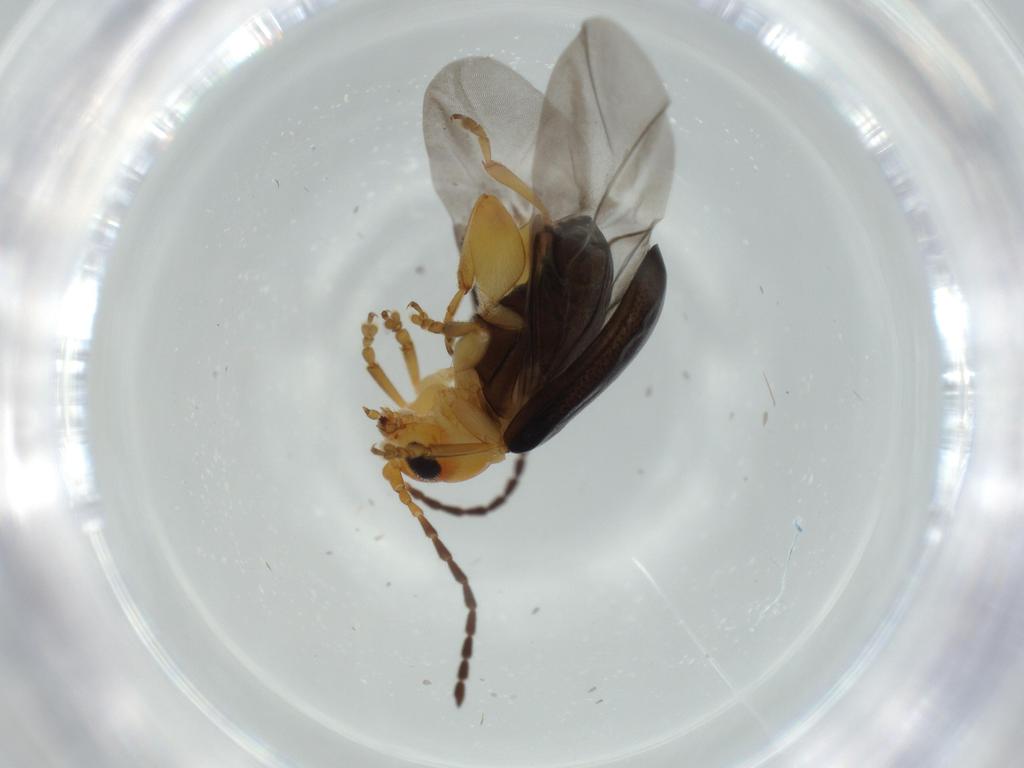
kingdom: Animalia
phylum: Arthropoda
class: Insecta
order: Coleoptera
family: Chrysomelidae
